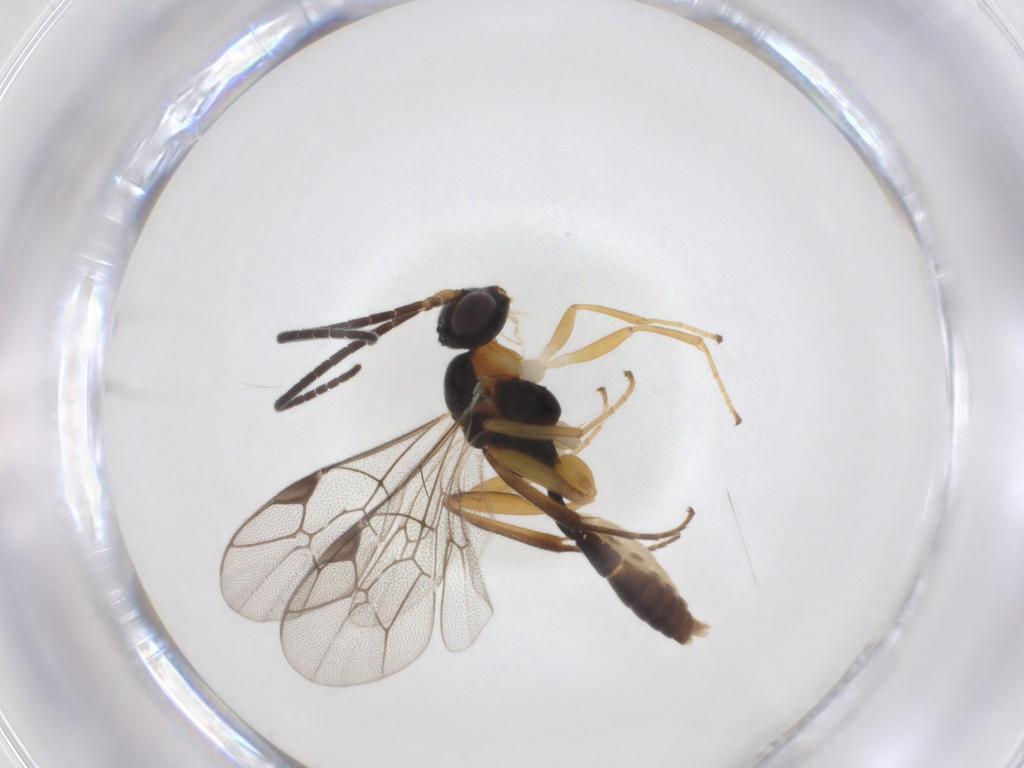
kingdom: Animalia
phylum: Arthropoda
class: Insecta
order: Hymenoptera
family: Ichneumonidae
